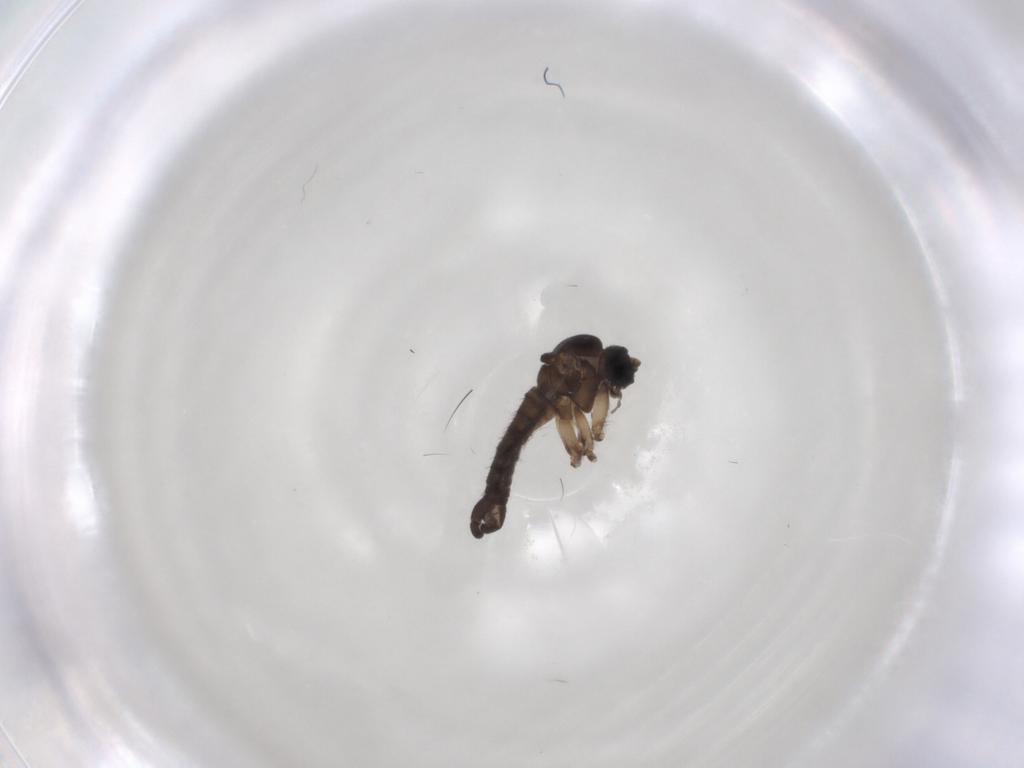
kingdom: Animalia
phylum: Arthropoda
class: Insecta
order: Diptera
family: Sciaridae
